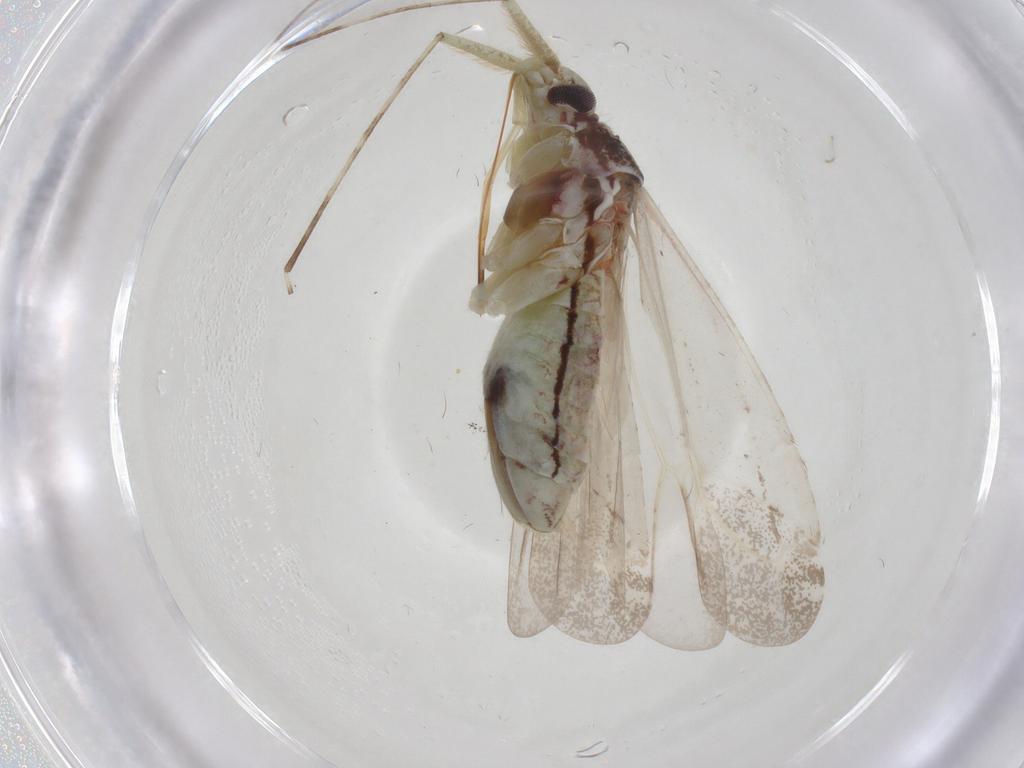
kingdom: Animalia
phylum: Arthropoda
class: Insecta
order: Hemiptera
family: Miridae
